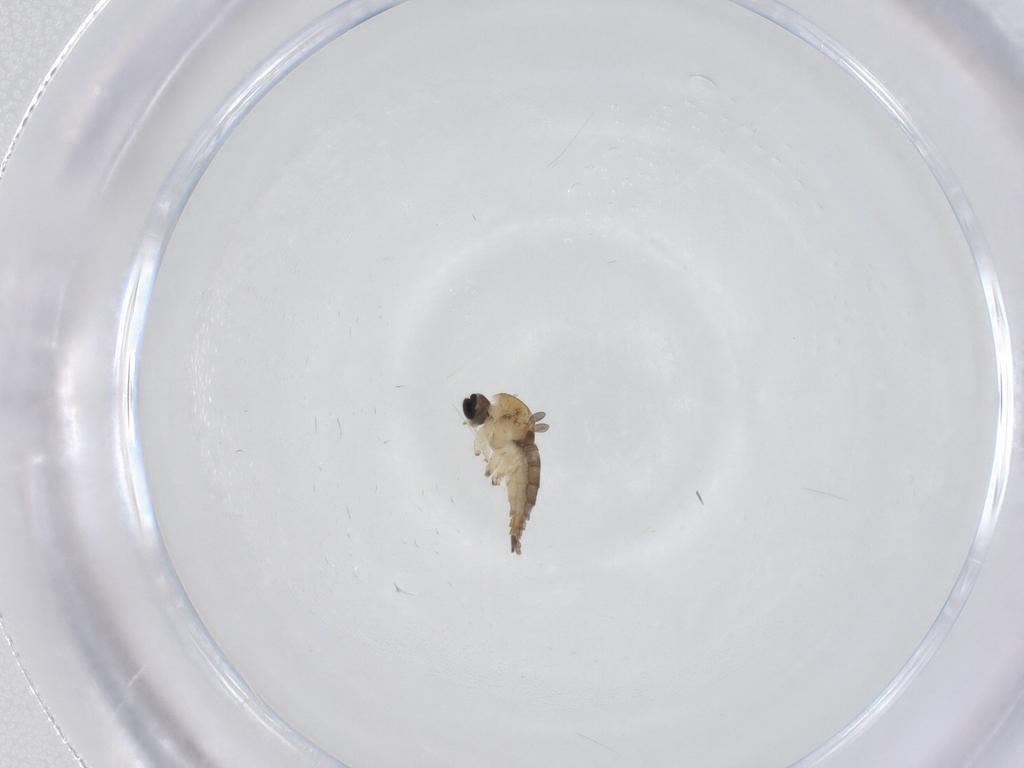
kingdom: Animalia
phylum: Arthropoda
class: Insecta
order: Diptera
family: Sciaridae
